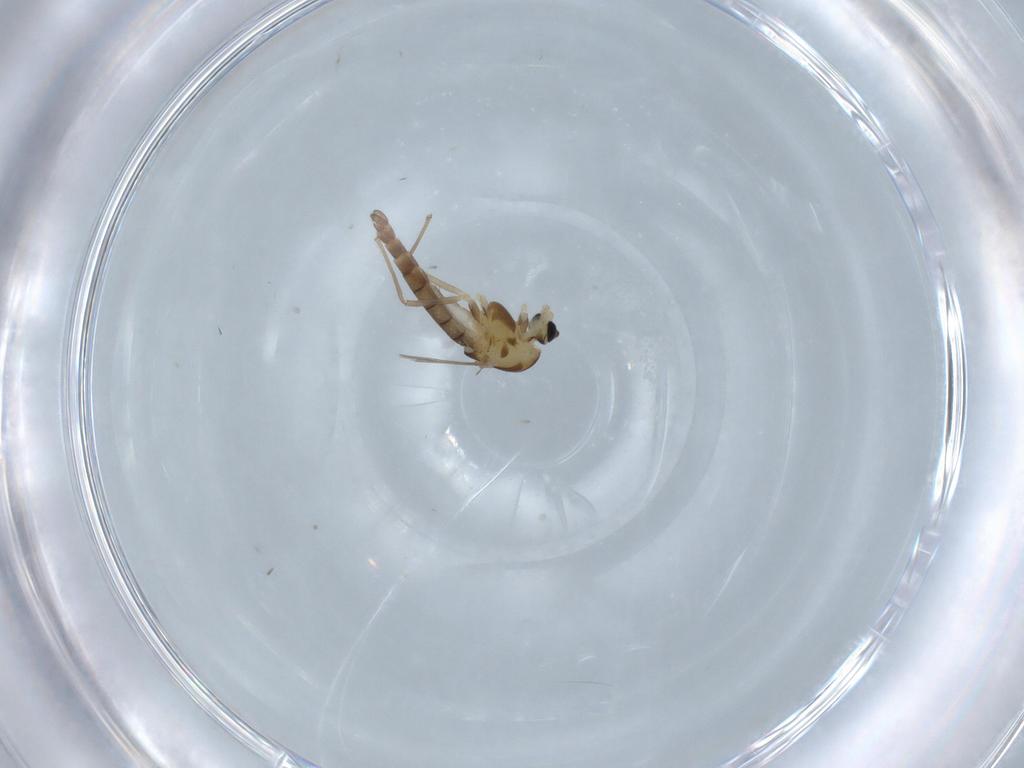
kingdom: Animalia
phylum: Arthropoda
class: Insecta
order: Diptera
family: Chironomidae
